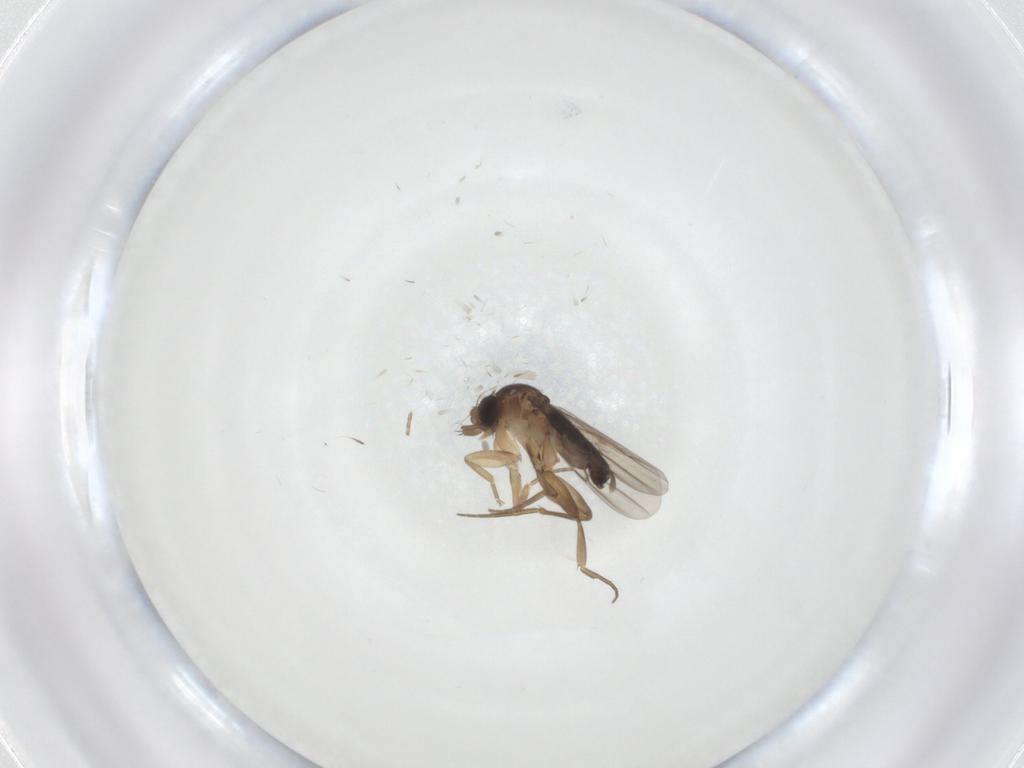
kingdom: Animalia
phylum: Arthropoda
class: Insecta
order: Diptera
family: Phoridae
